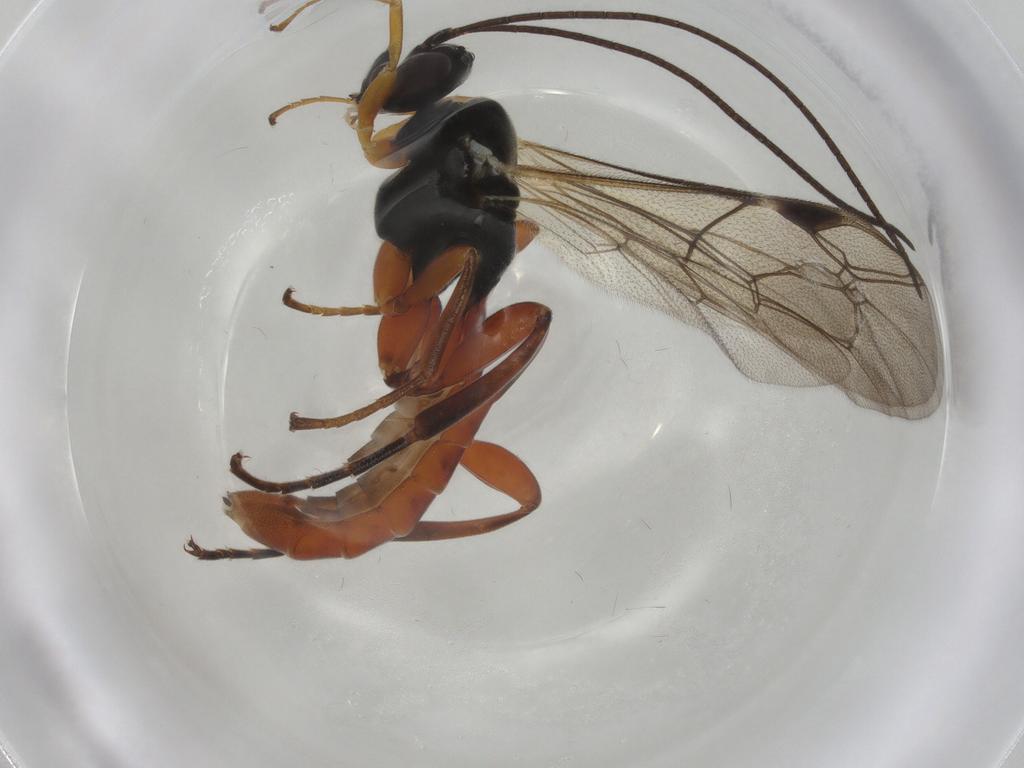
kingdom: Animalia
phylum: Arthropoda
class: Insecta
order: Hymenoptera
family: Ichneumonidae
